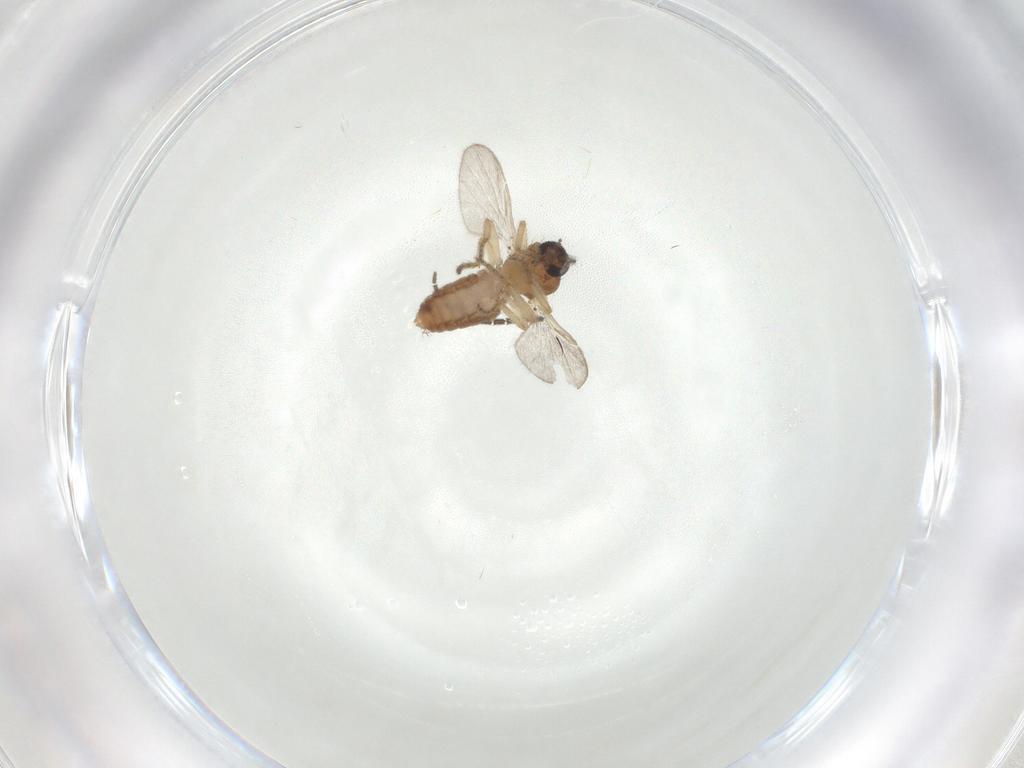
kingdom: Animalia
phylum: Arthropoda
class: Insecta
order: Diptera
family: Ceratopogonidae
